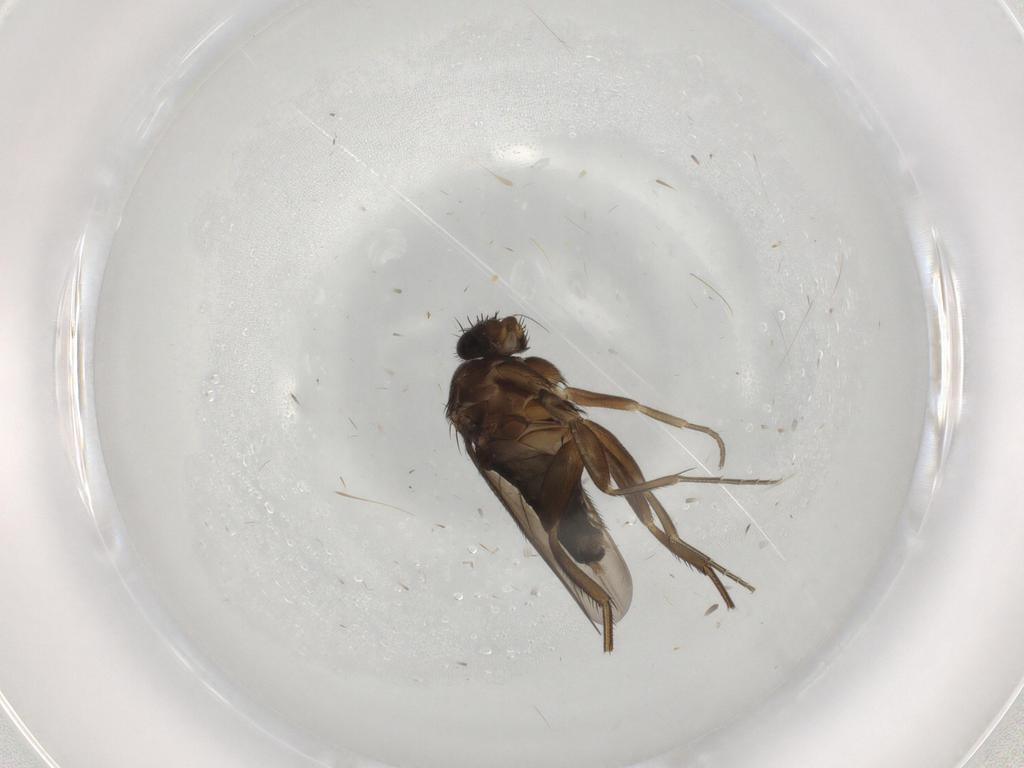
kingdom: Animalia
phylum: Arthropoda
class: Insecta
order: Diptera
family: Phoridae
